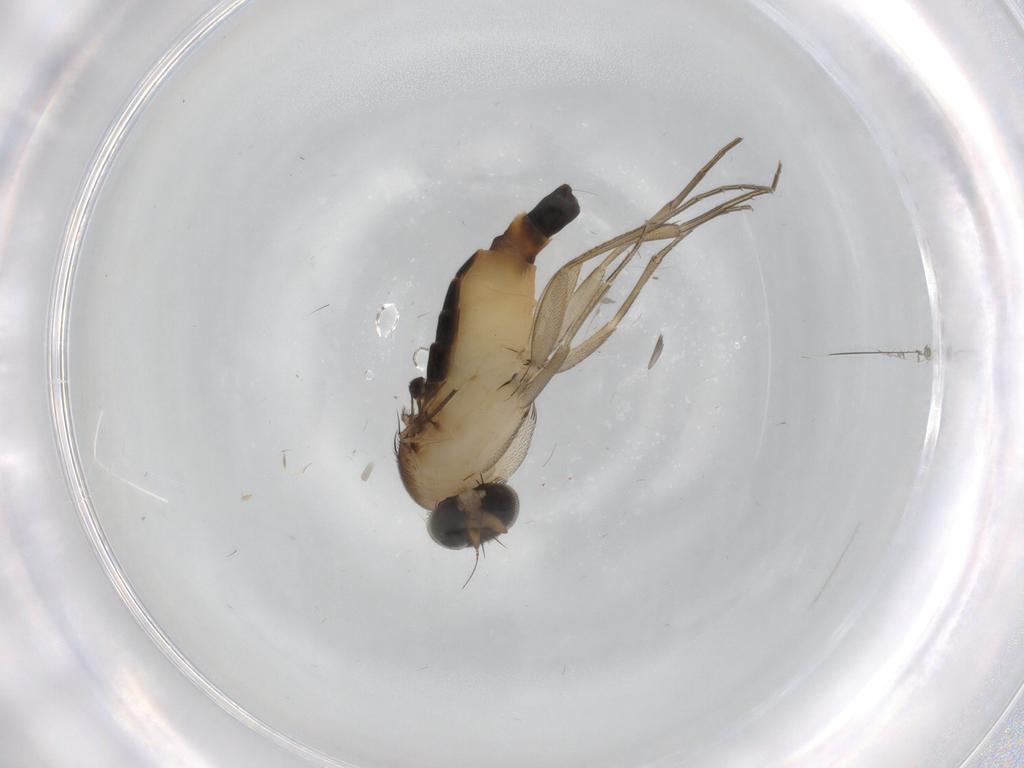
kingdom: Animalia
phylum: Arthropoda
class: Insecta
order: Diptera
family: Phoridae
